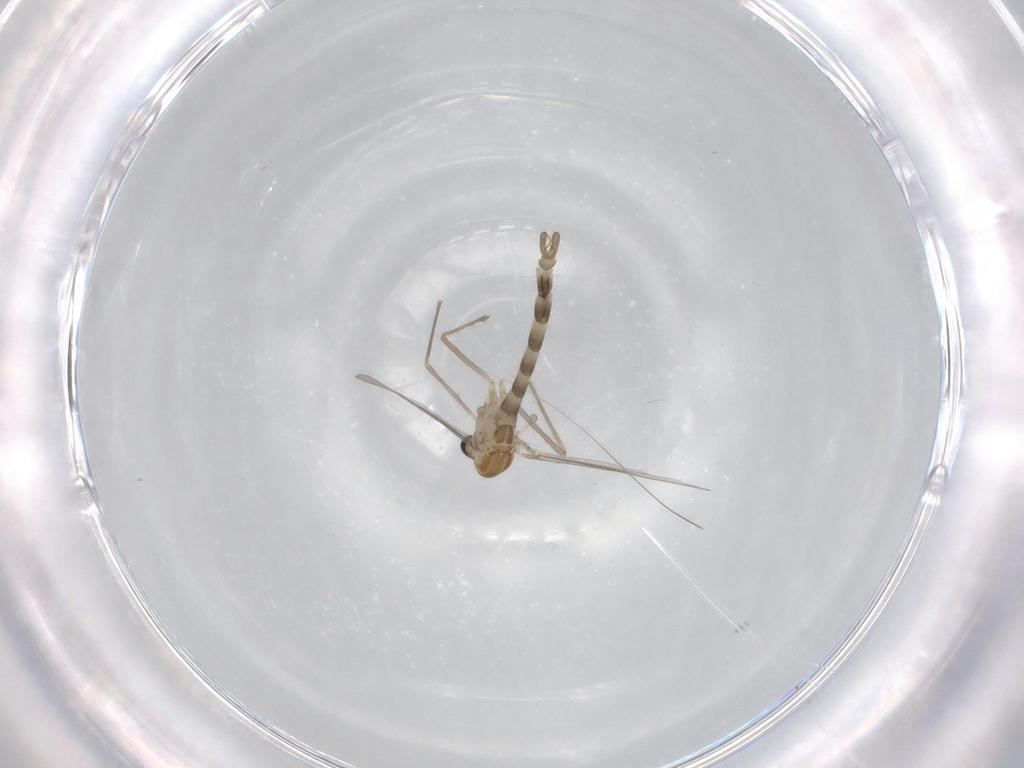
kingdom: Animalia
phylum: Arthropoda
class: Insecta
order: Diptera
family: Chironomidae
